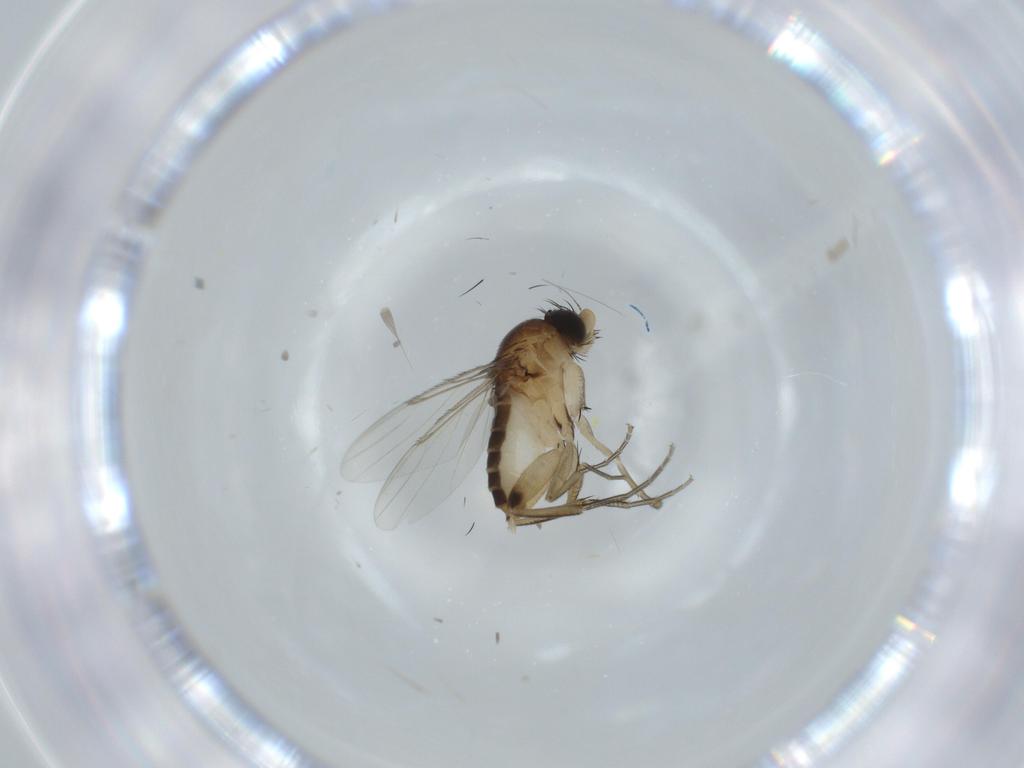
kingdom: Animalia
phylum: Arthropoda
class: Insecta
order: Diptera
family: Phoridae
